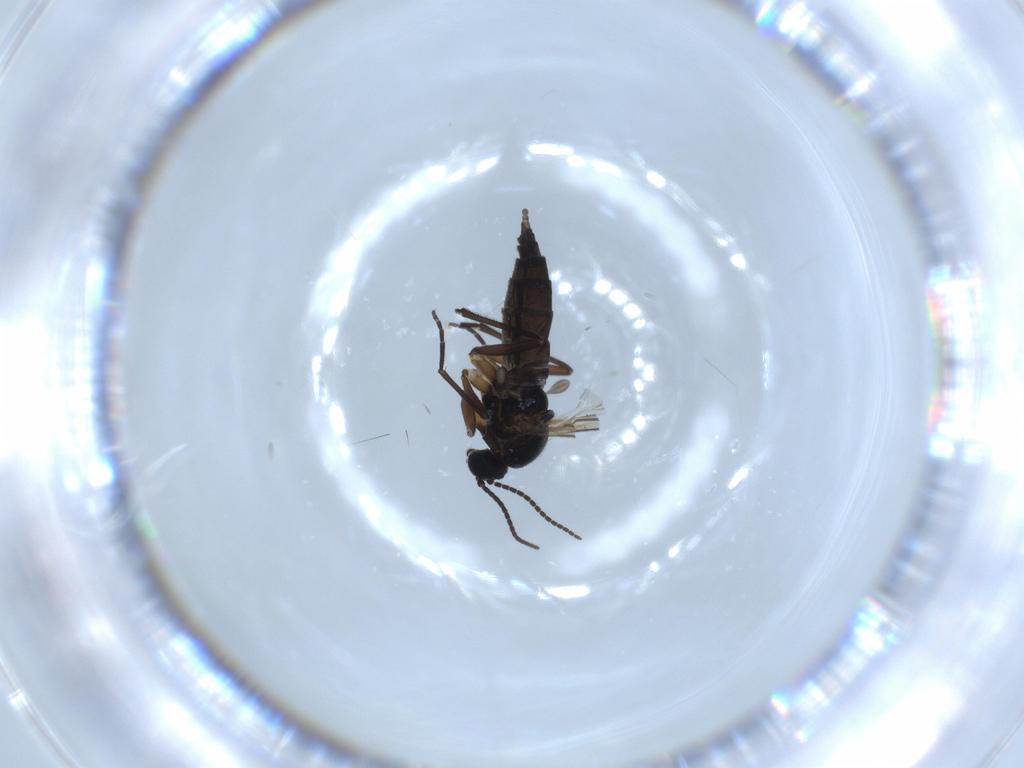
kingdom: Animalia
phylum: Arthropoda
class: Insecta
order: Diptera
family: Sciaridae
